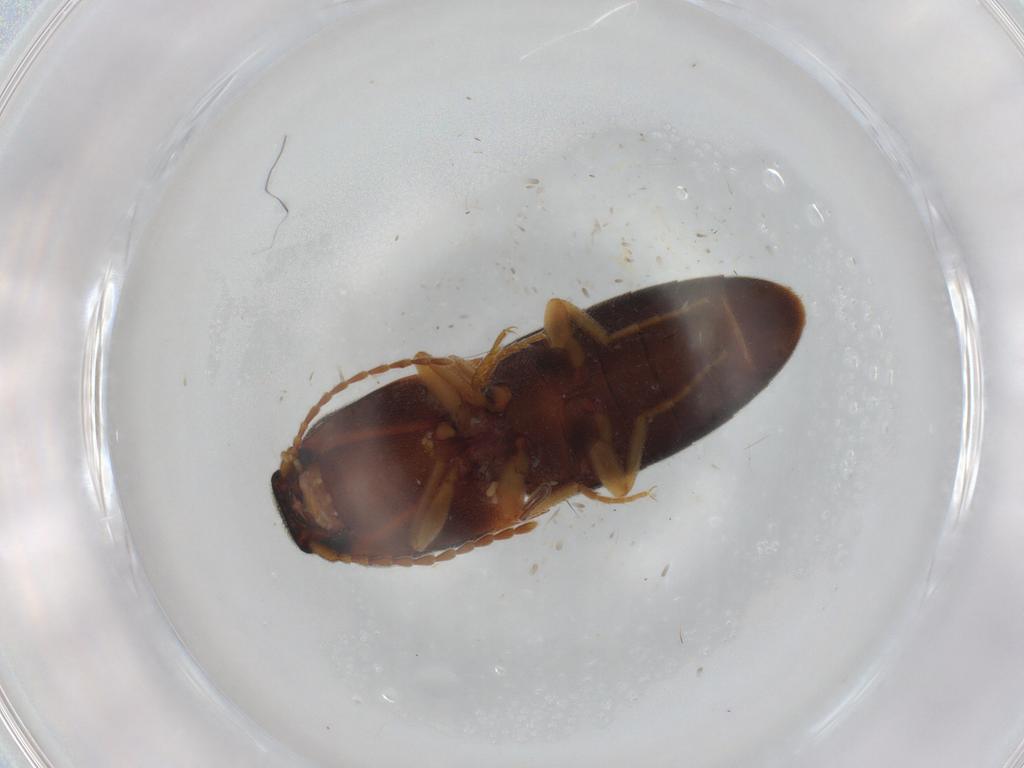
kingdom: Animalia
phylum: Arthropoda
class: Insecta
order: Coleoptera
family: Elateridae
